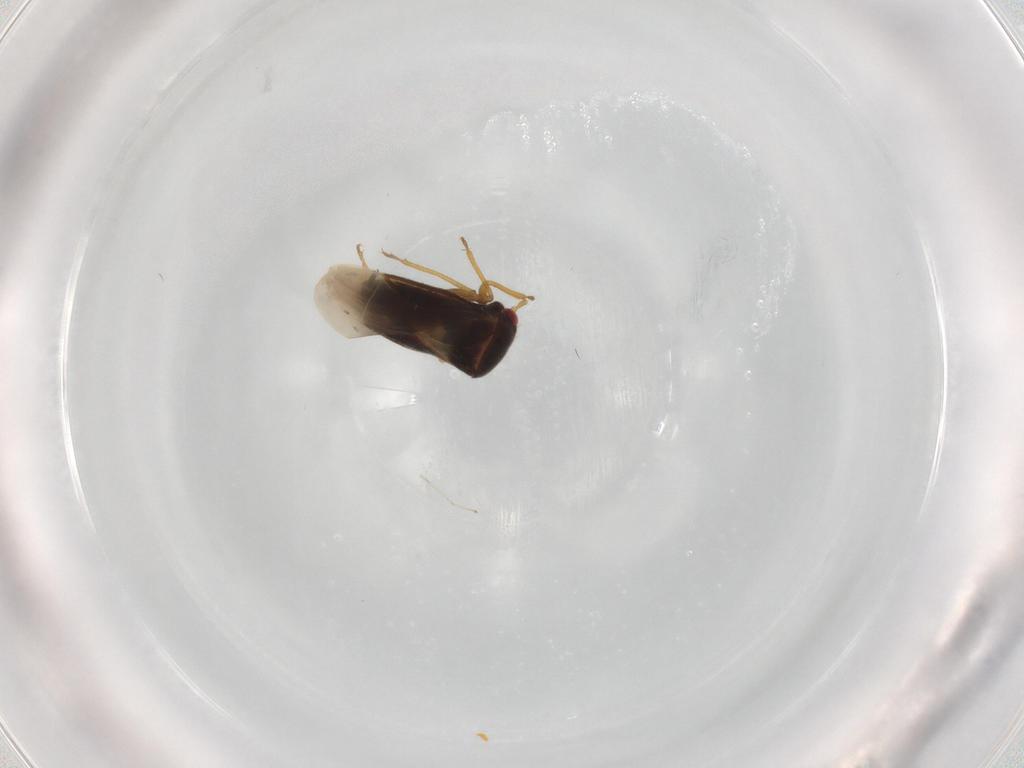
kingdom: Animalia
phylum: Arthropoda
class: Insecta
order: Hemiptera
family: Schizopteridae
